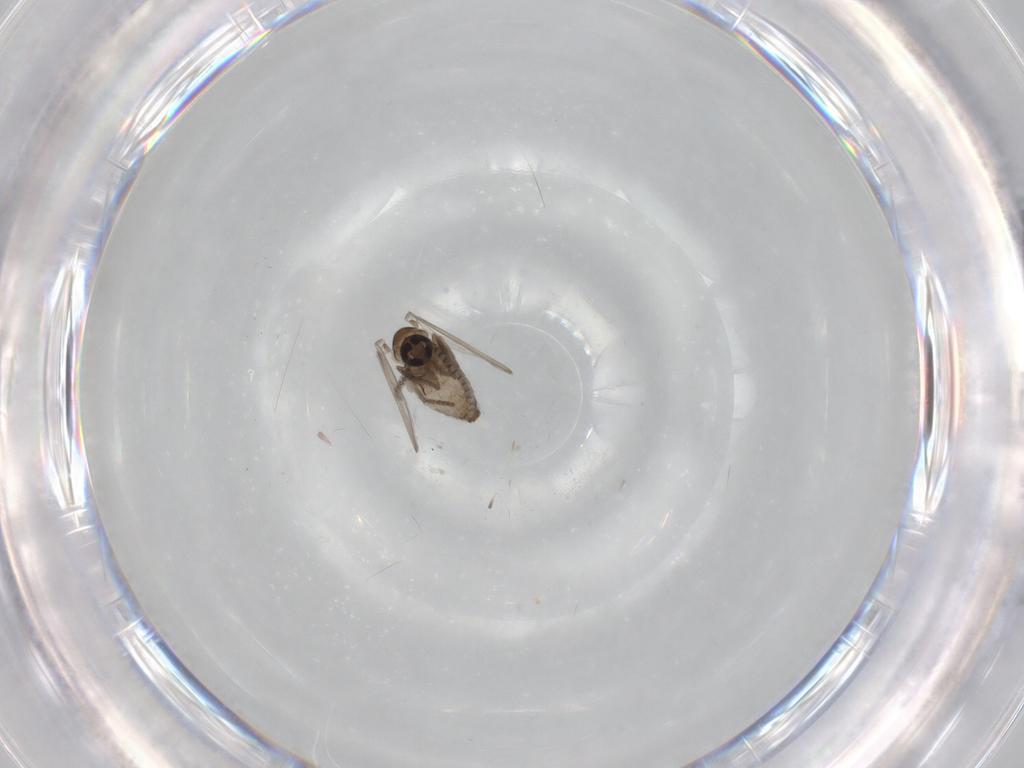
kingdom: Animalia
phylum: Arthropoda
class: Insecta
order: Diptera
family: Psychodidae
